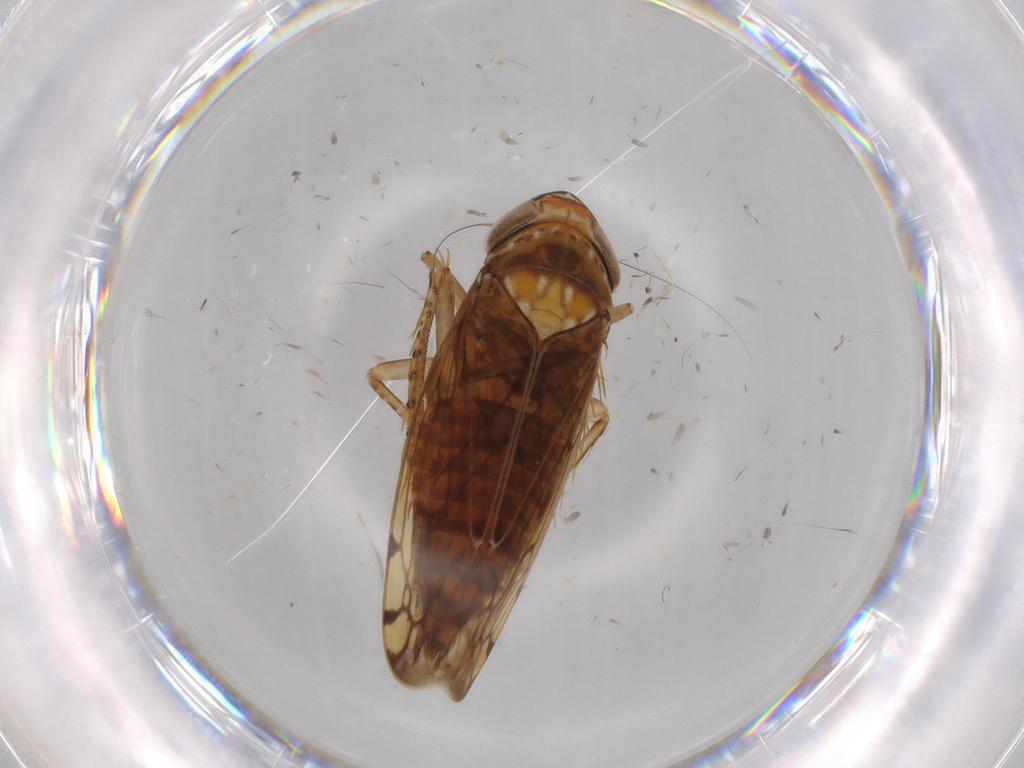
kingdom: Animalia
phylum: Arthropoda
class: Insecta
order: Hemiptera
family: Cicadellidae
